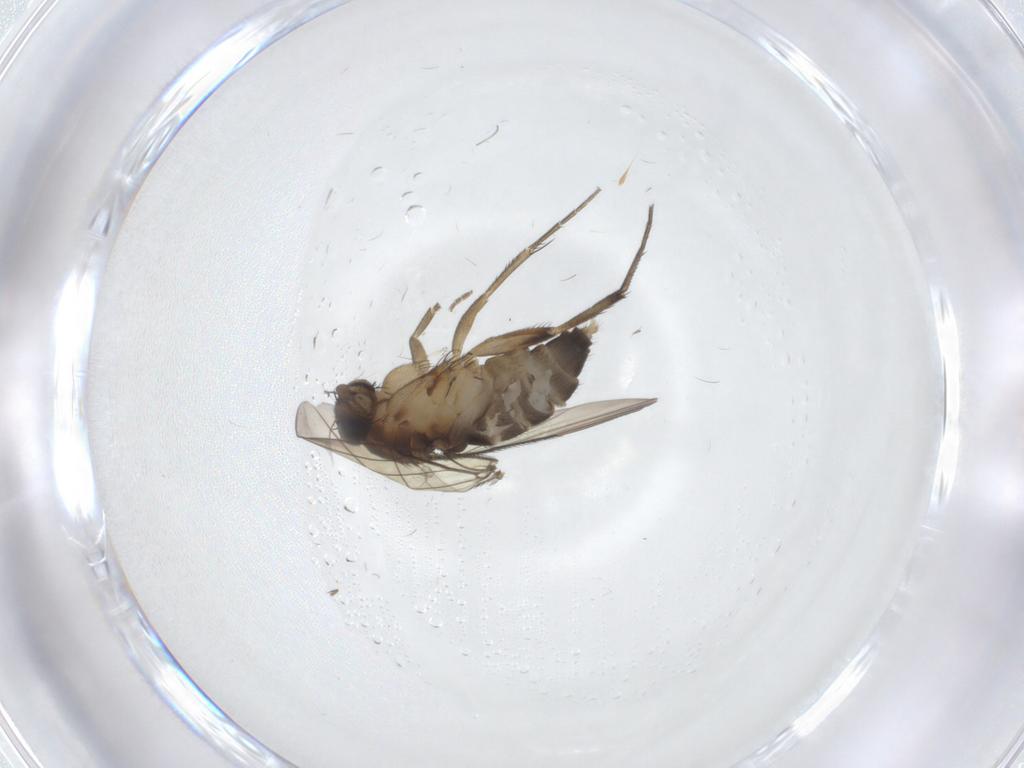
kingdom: Animalia
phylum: Arthropoda
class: Insecta
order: Diptera
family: Phoridae
